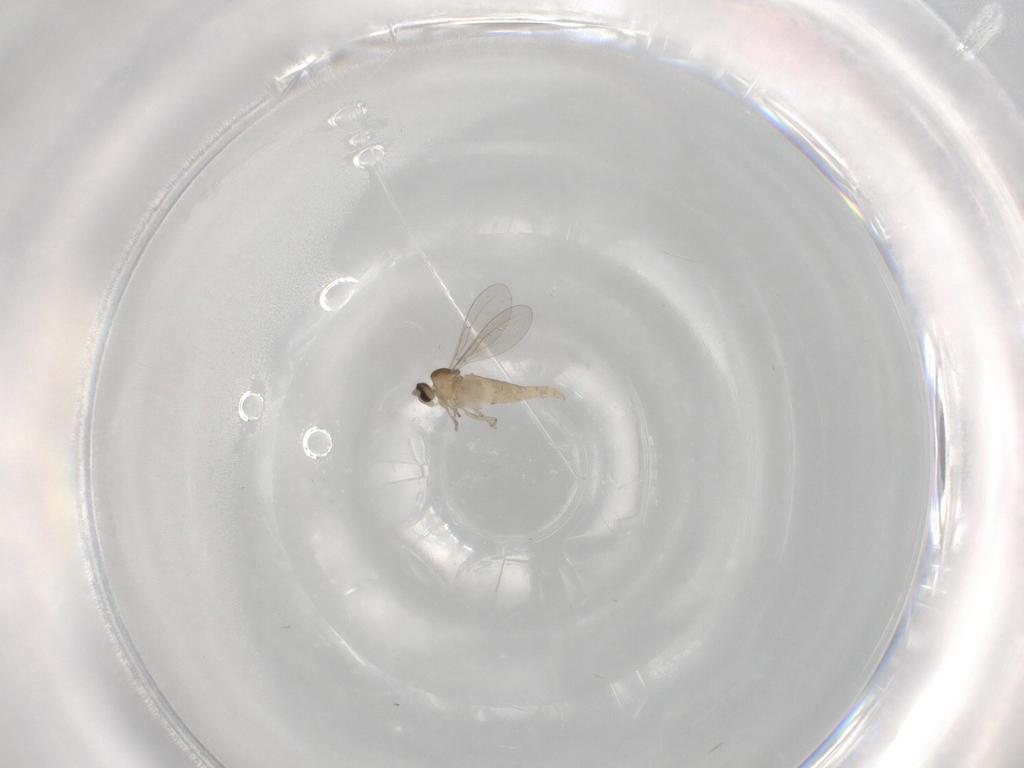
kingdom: Animalia
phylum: Arthropoda
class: Insecta
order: Diptera
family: Cecidomyiidae
